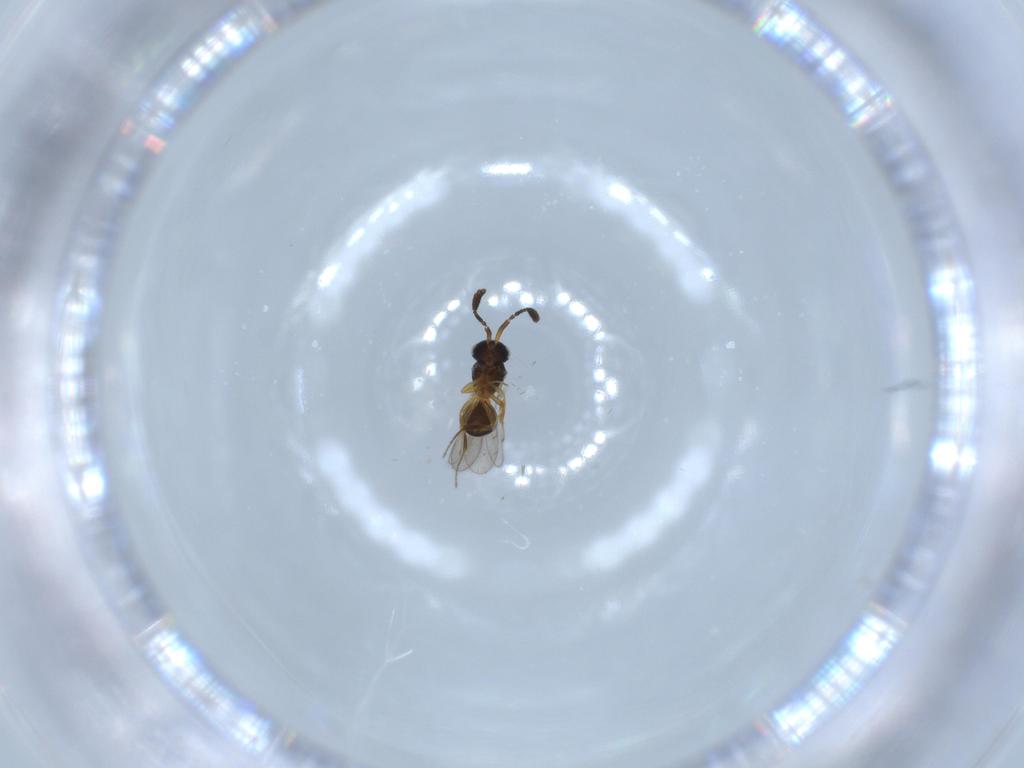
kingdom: Animalia
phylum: Arthropoda
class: Insecta
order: Hymenoptera
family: Scelionidae
